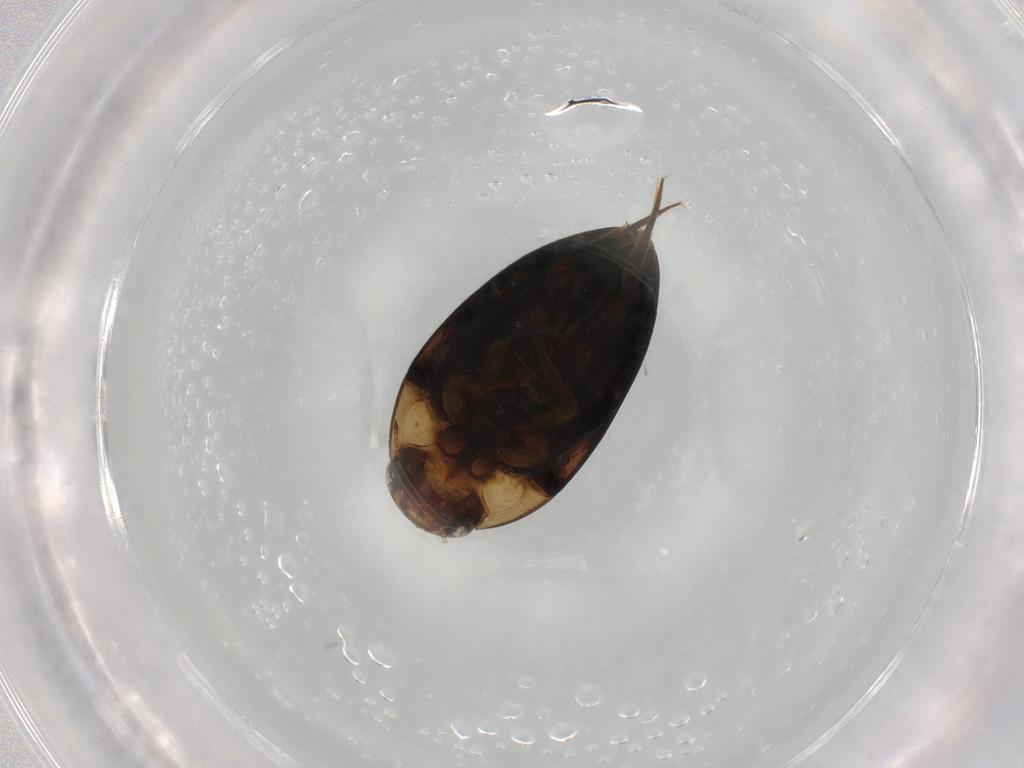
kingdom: Animalia
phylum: Arthropoda
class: Insecta
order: Coleoptera
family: Noteridae
